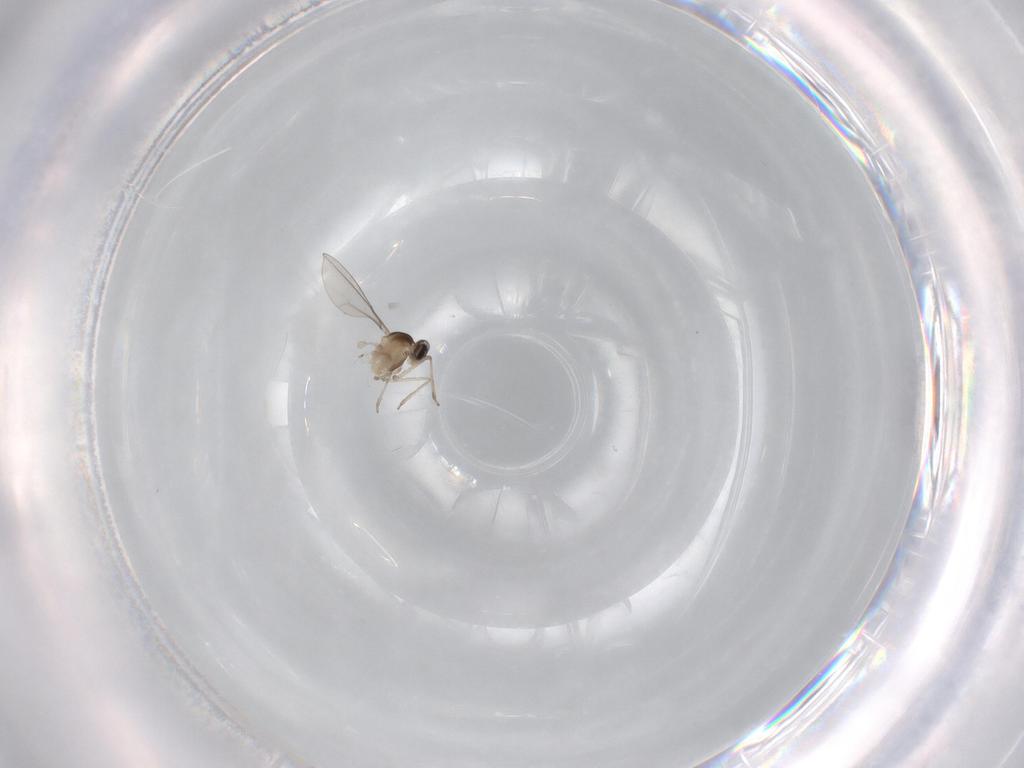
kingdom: Animalia
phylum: Arthropoda
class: Insecta
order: Diptera
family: Cecidomyiidae
